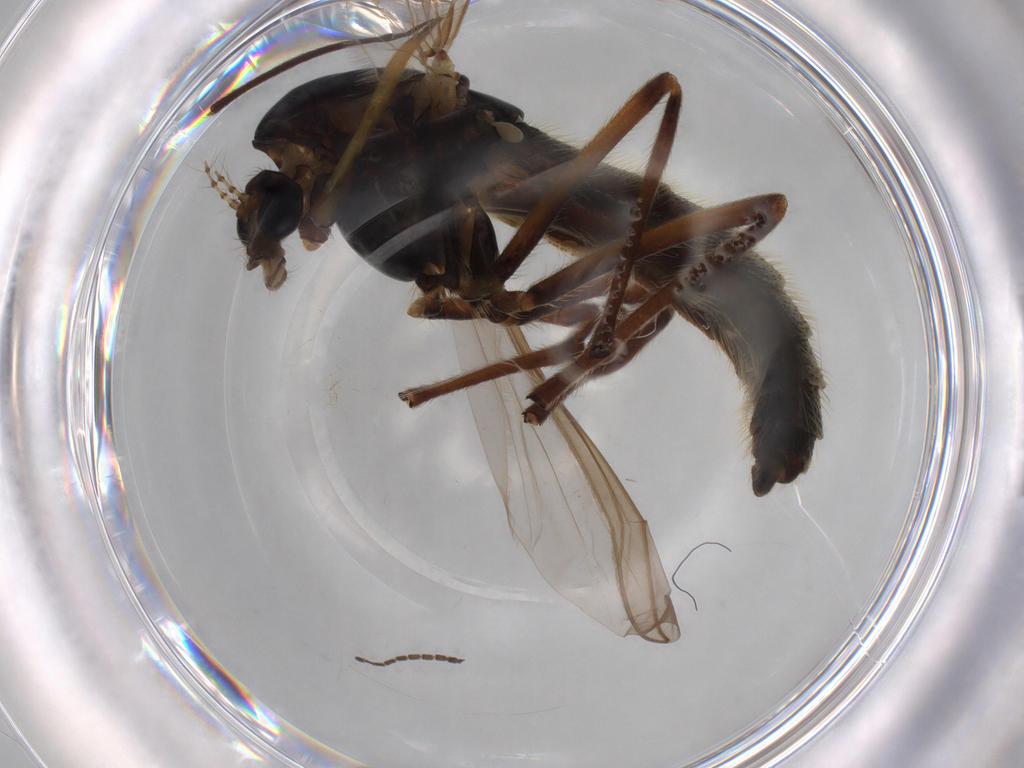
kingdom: Animalia
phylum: Arthropoda
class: Insecta
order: Diptera
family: Chironomidae
